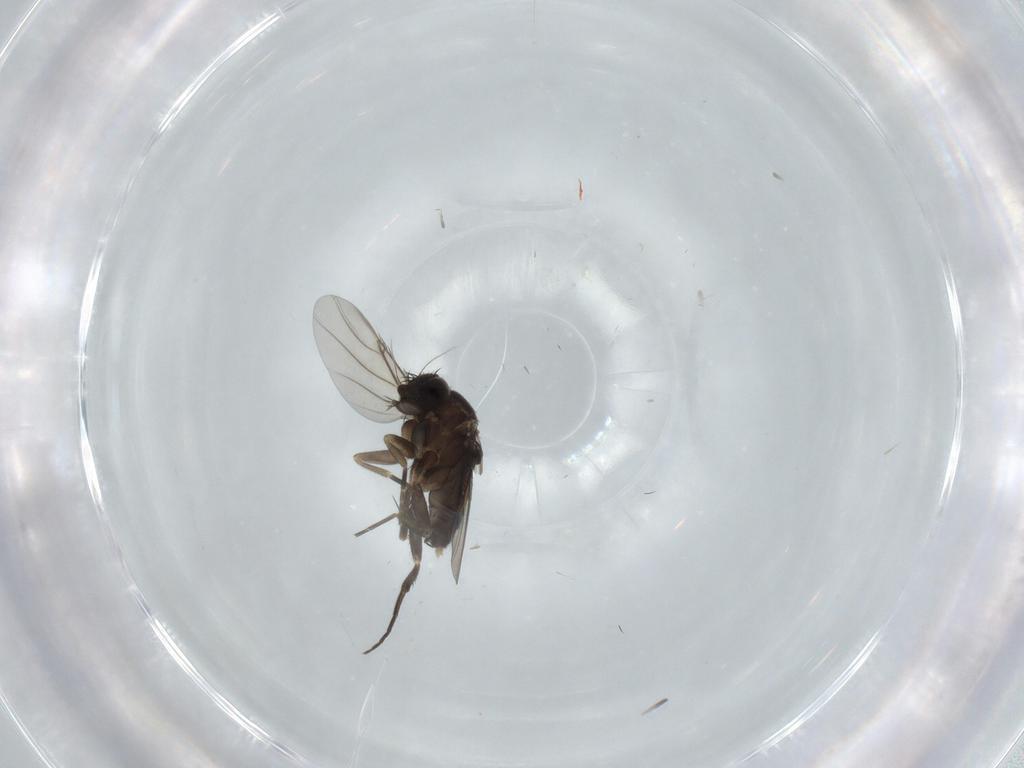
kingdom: Animalia
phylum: Arthropoda
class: Insecta
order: Diptera
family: Phoridae
